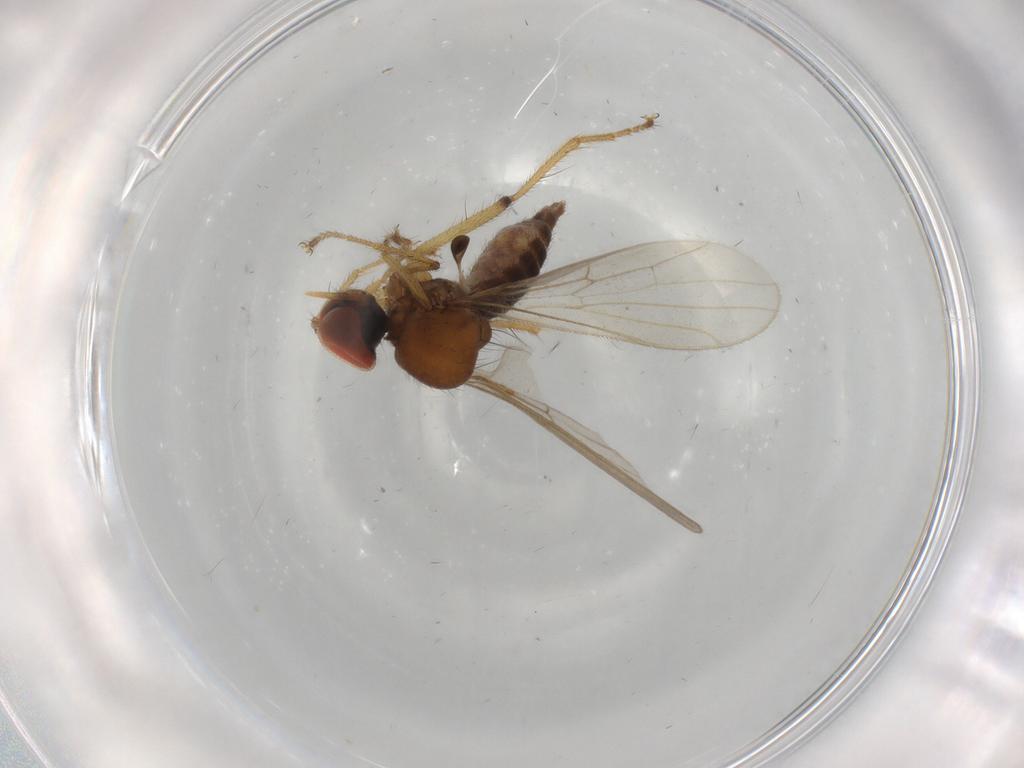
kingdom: Animalia
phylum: Arthropoda
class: Insecta
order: Diptera
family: Hybotidae
